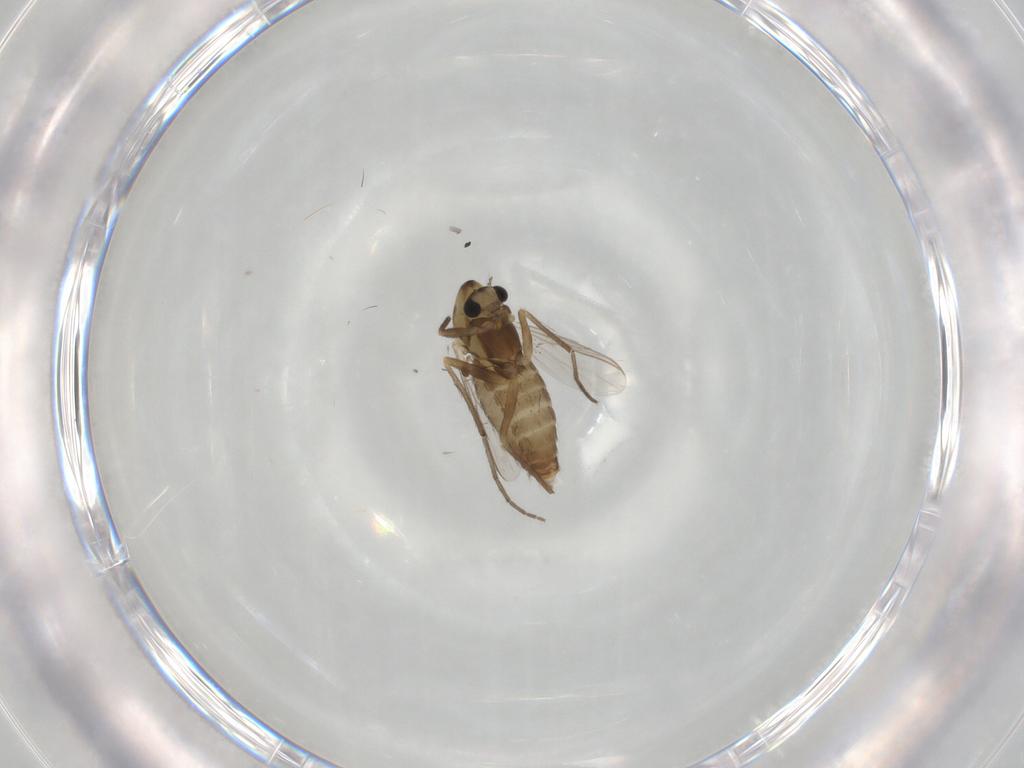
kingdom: Animalia
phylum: Arthropoda
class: Insecta
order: Diptera
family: Chironomidae
